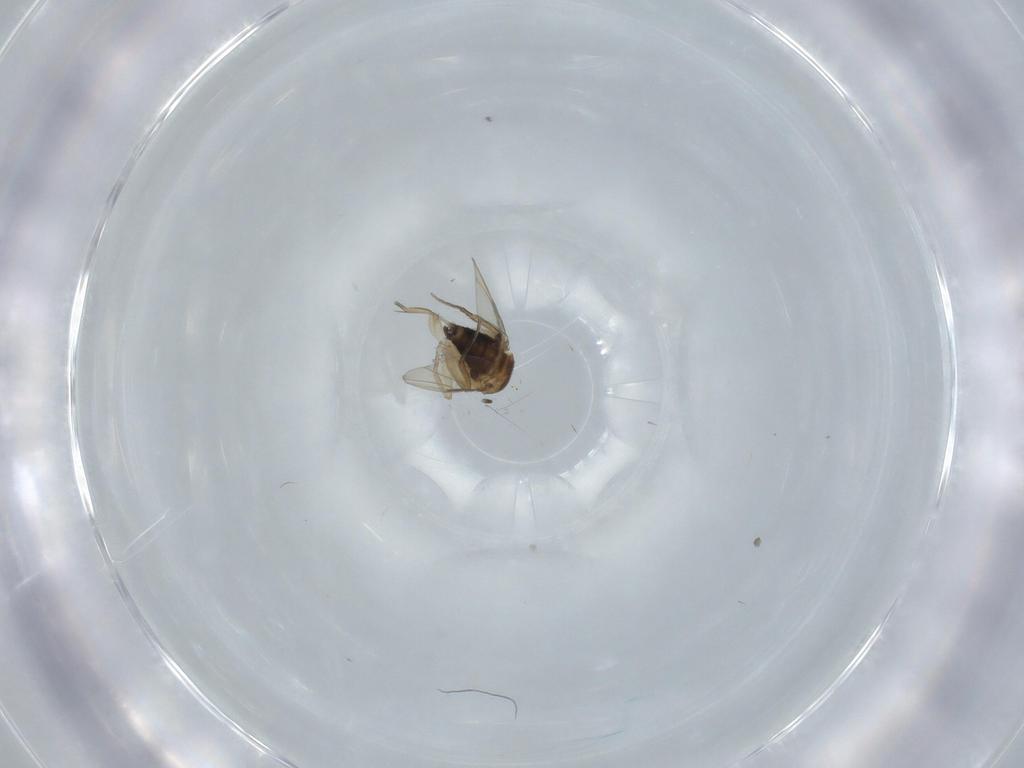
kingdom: Animalia
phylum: Arthropoda
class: Insecta
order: Diptera
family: Phoridae
